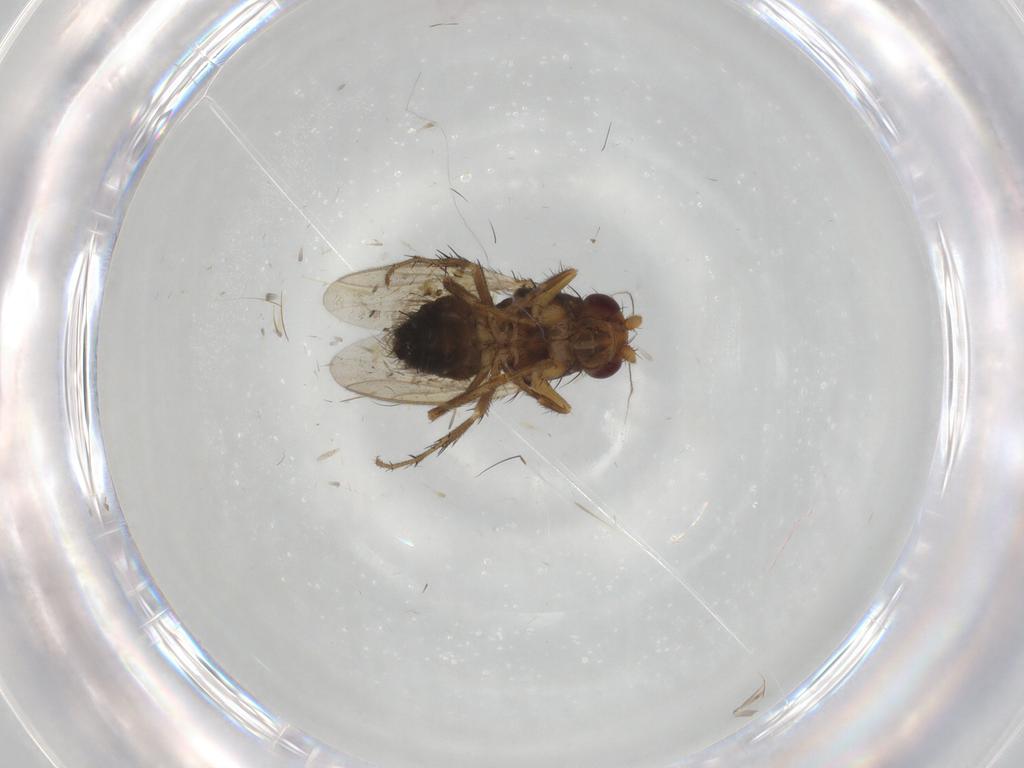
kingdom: Animalia
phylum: Arthropoda
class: Insecta
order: Diptera
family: Sphaeroceridae
